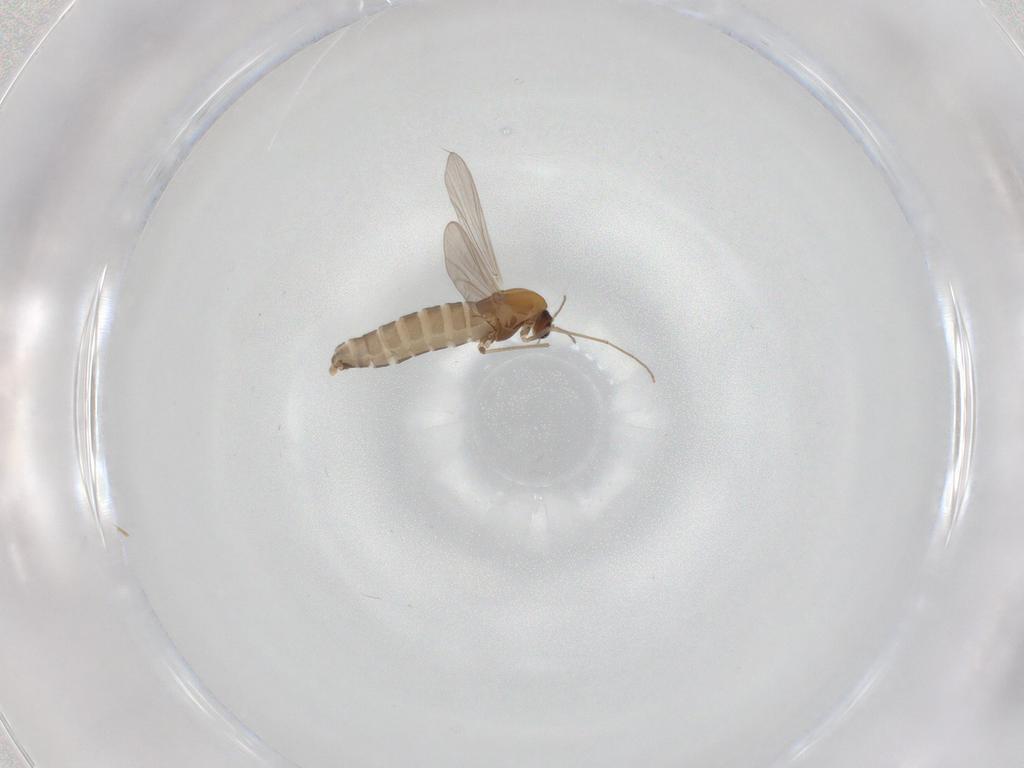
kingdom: Animalia
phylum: Arthropoda
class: Insecta
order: Diptera
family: Chironomidae
